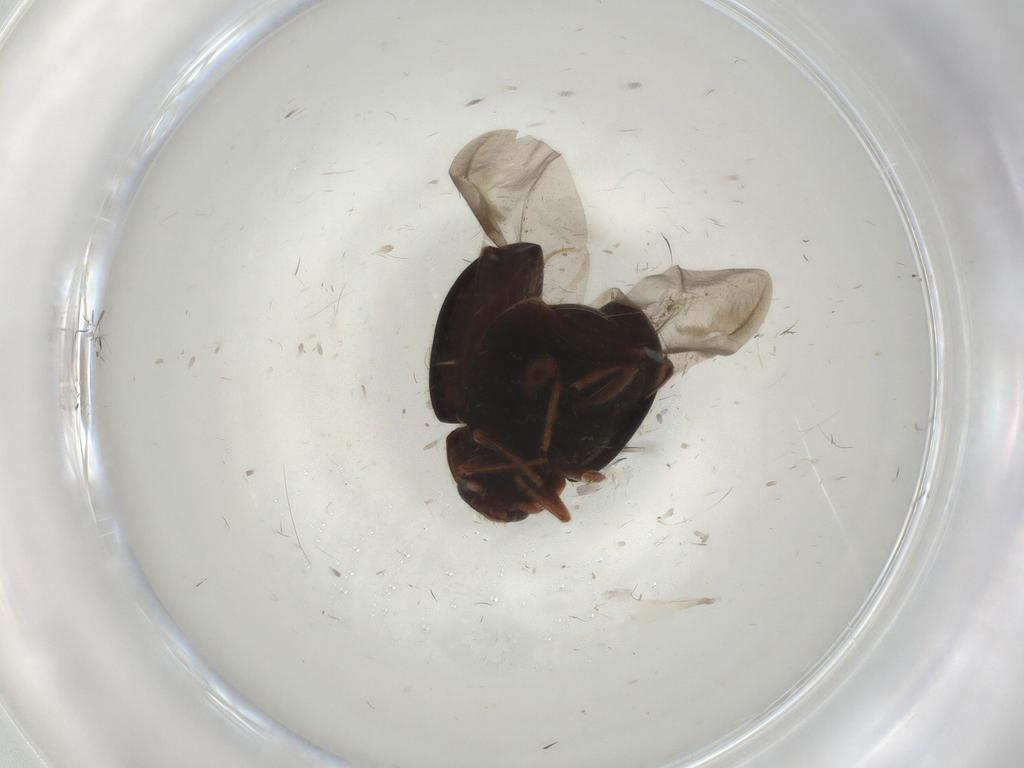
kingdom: Animalia
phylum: Arthropoda
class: Insecta
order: Coleoptera
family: Coccinellidae
